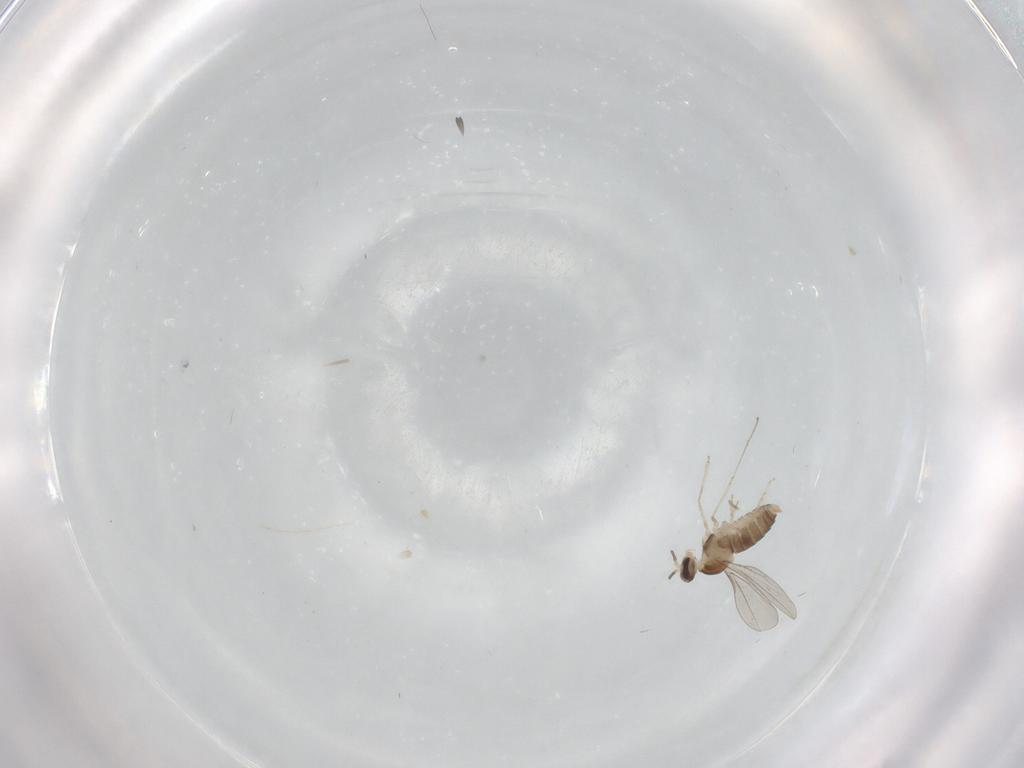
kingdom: Animalia
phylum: Arthropoda
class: Insecta
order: Diptera
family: Cecidomyiidae
